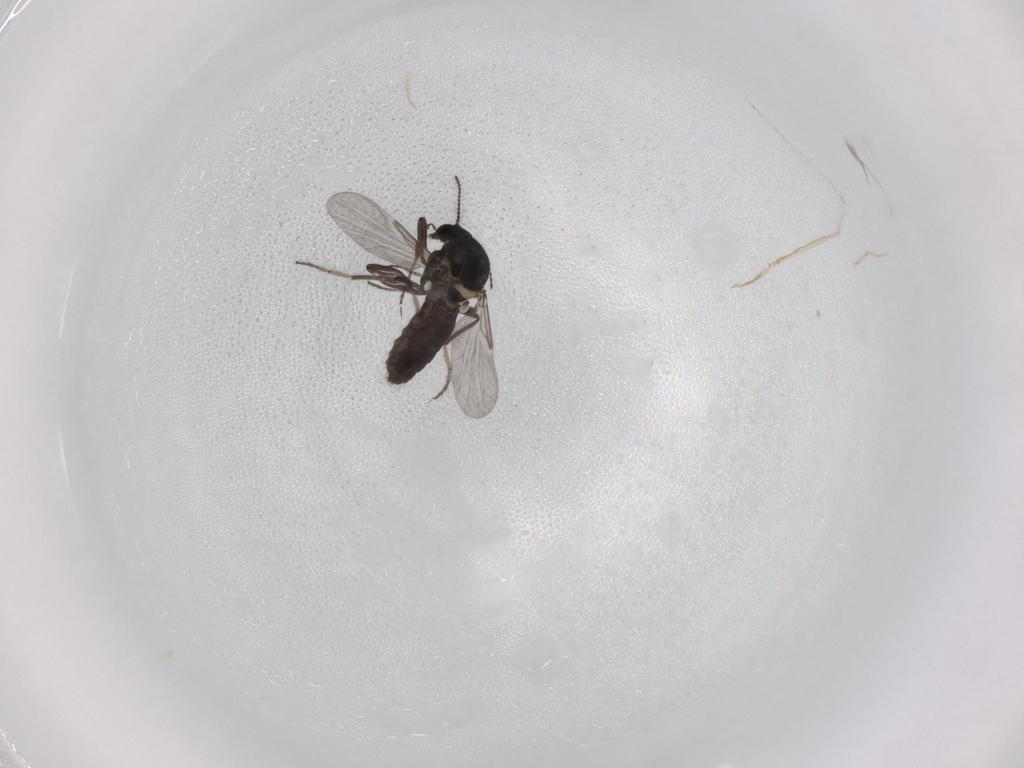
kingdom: Animalia
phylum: Arthropoda
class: Insecta
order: Diptera
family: Ceratopogonidae
